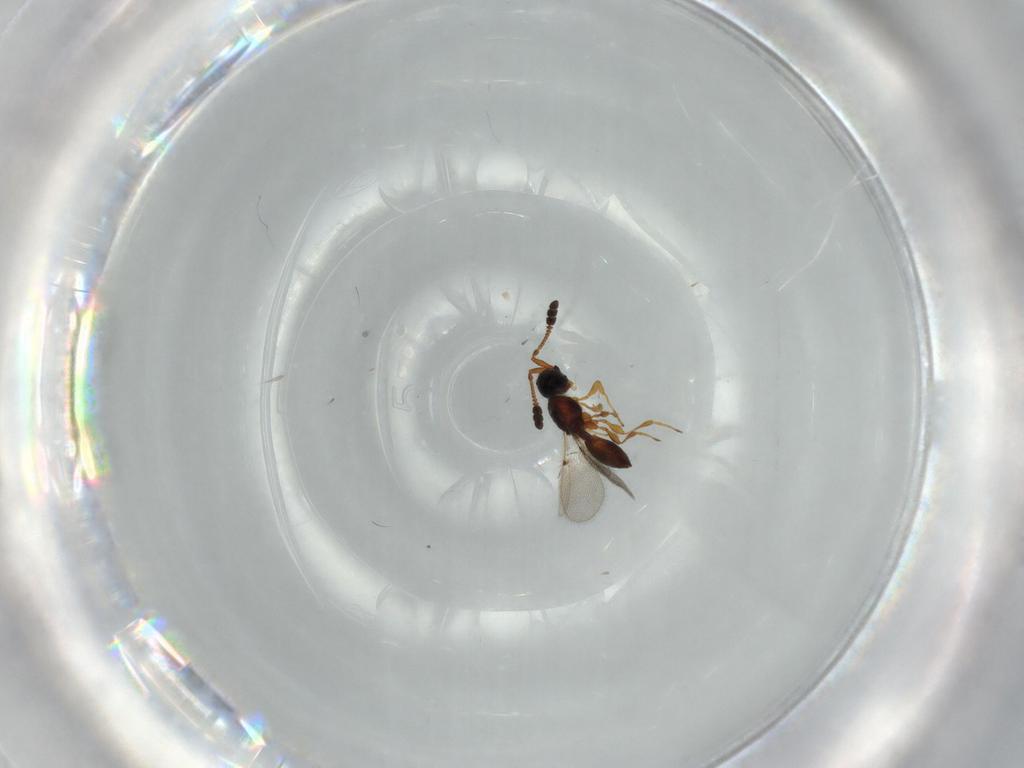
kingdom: Animalia
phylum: Arthropoda
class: Insecta
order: Hymenoptera
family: Diapriidae
